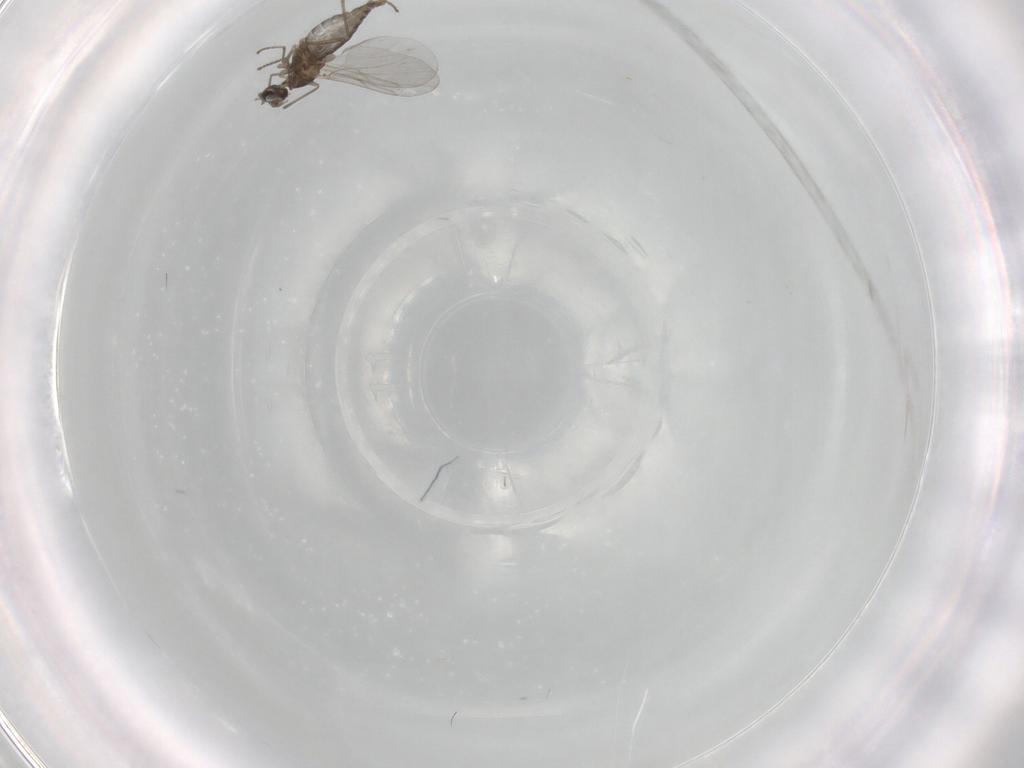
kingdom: Animalia
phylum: Arthropoda
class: Insecta
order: Diptera
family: Cecidomyiidae
